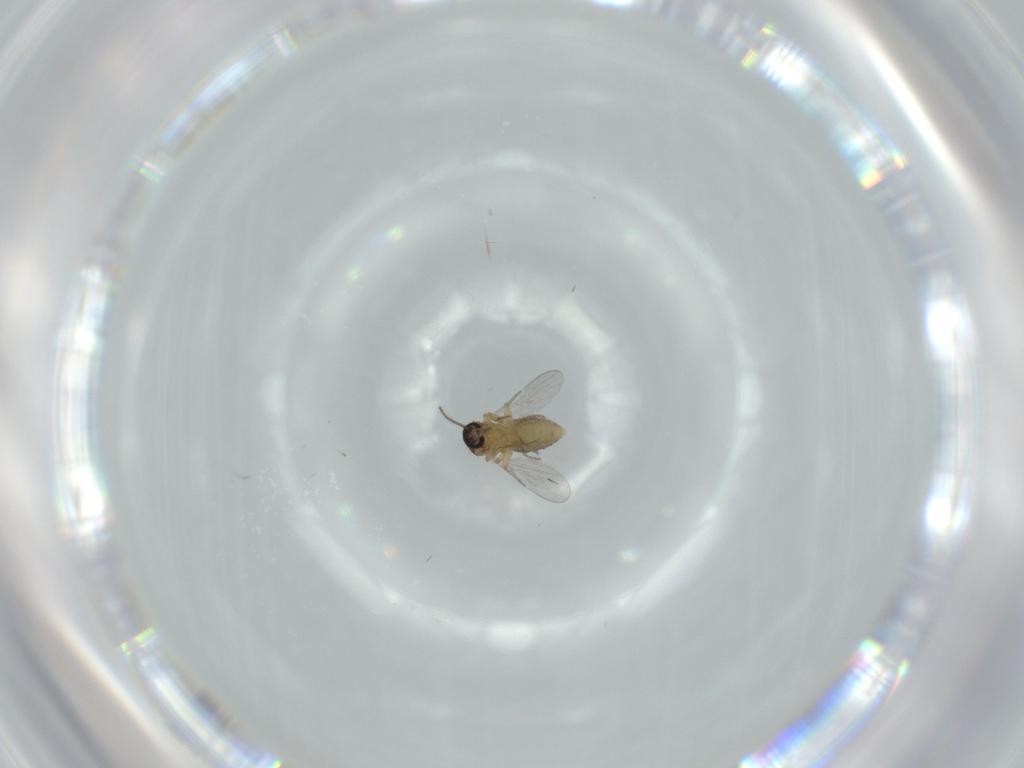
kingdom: Animalia
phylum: Arthropoda
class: Insecta
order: Diptera
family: Ceratopogonidae
